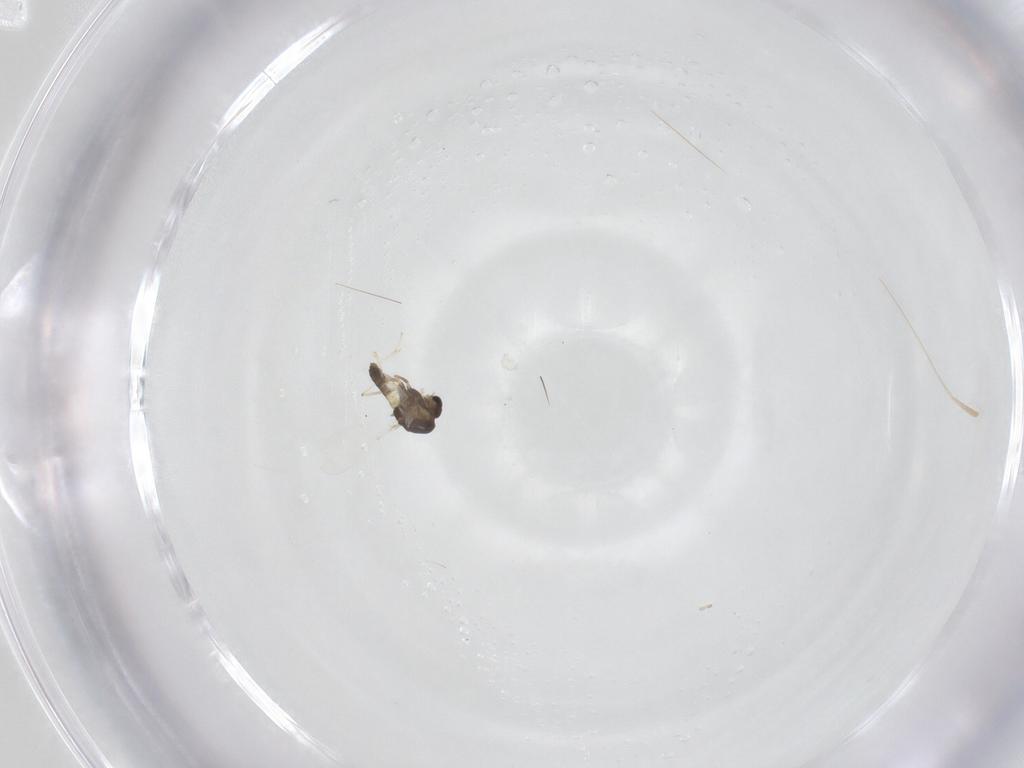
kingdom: Animalia
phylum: Arthropoda
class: Insecta
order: Diptera
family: Chironomidae
